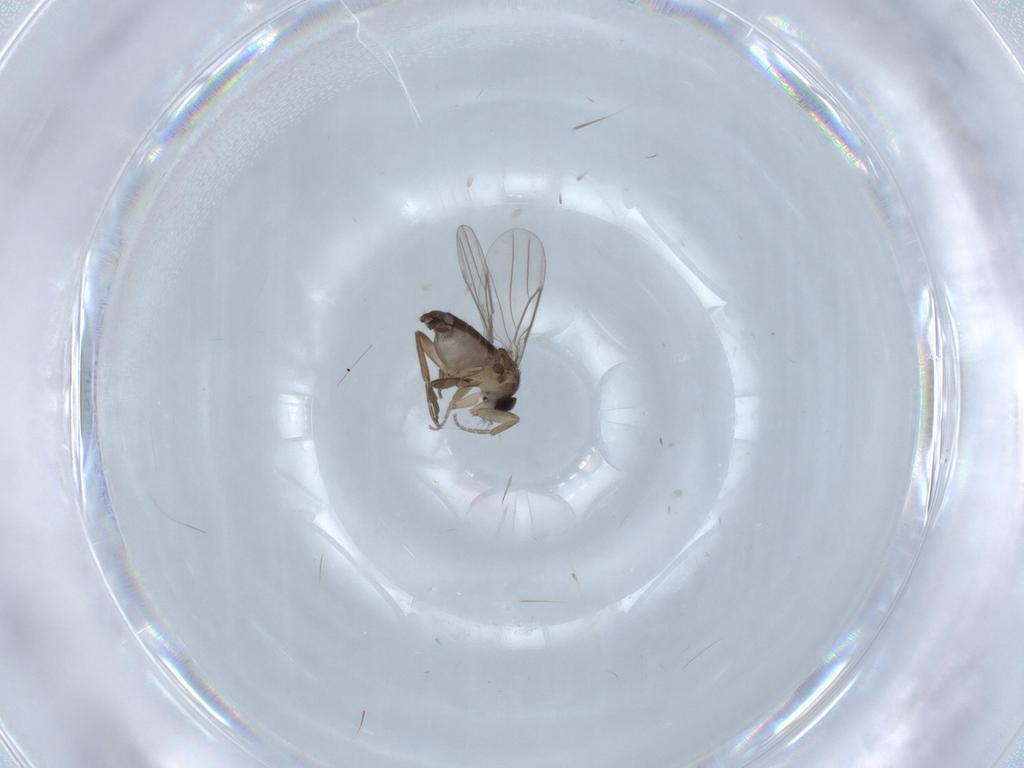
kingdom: Animalia
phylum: Arthropoda
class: Insecta
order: Diptera
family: Phoridae
